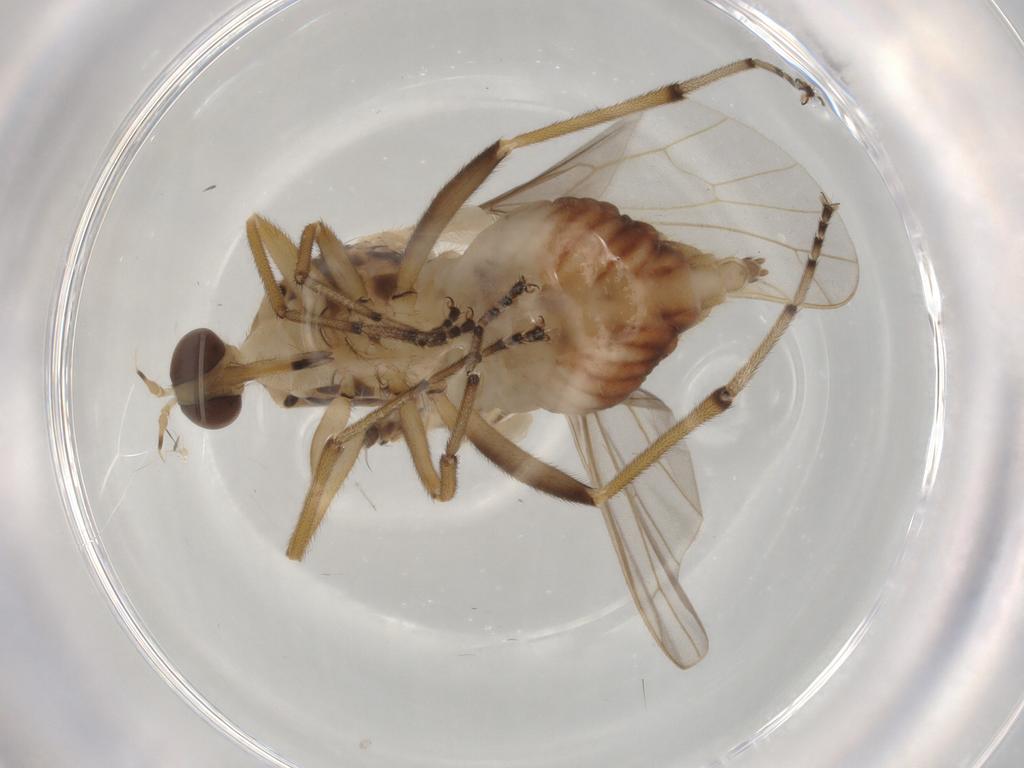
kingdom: Animalia
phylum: Arthropoda
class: Insecta
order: Diptera
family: Empididae
